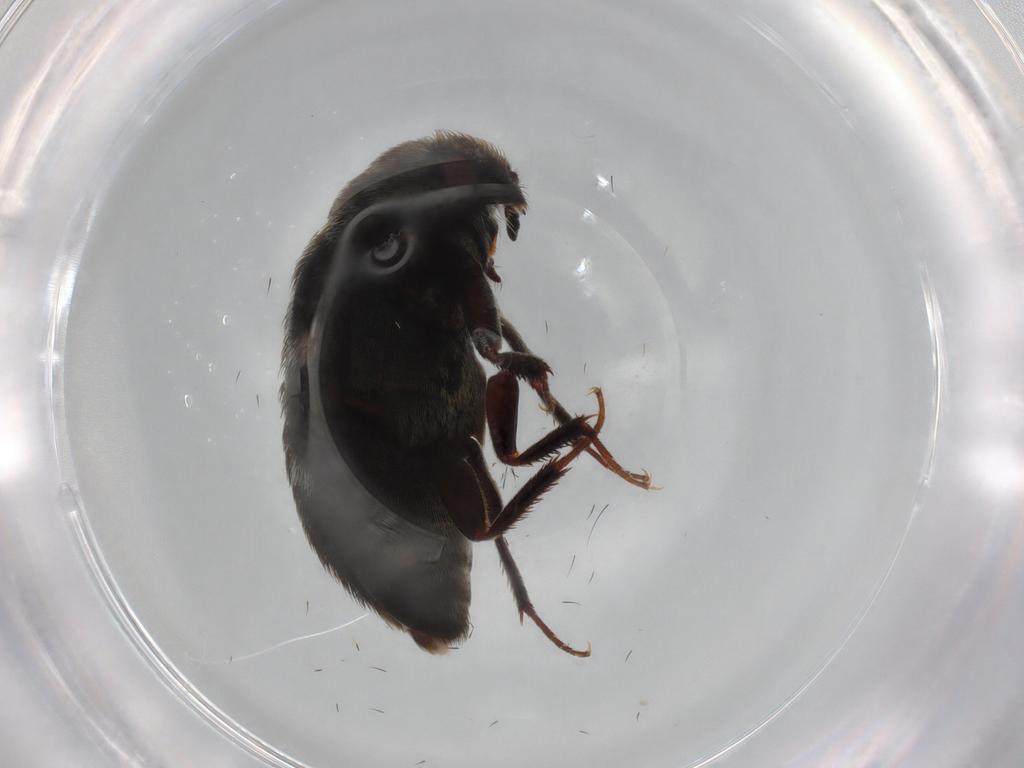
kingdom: Animalia
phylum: Arthropoda
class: Insecta
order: Coleoptera
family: Dermestidae
